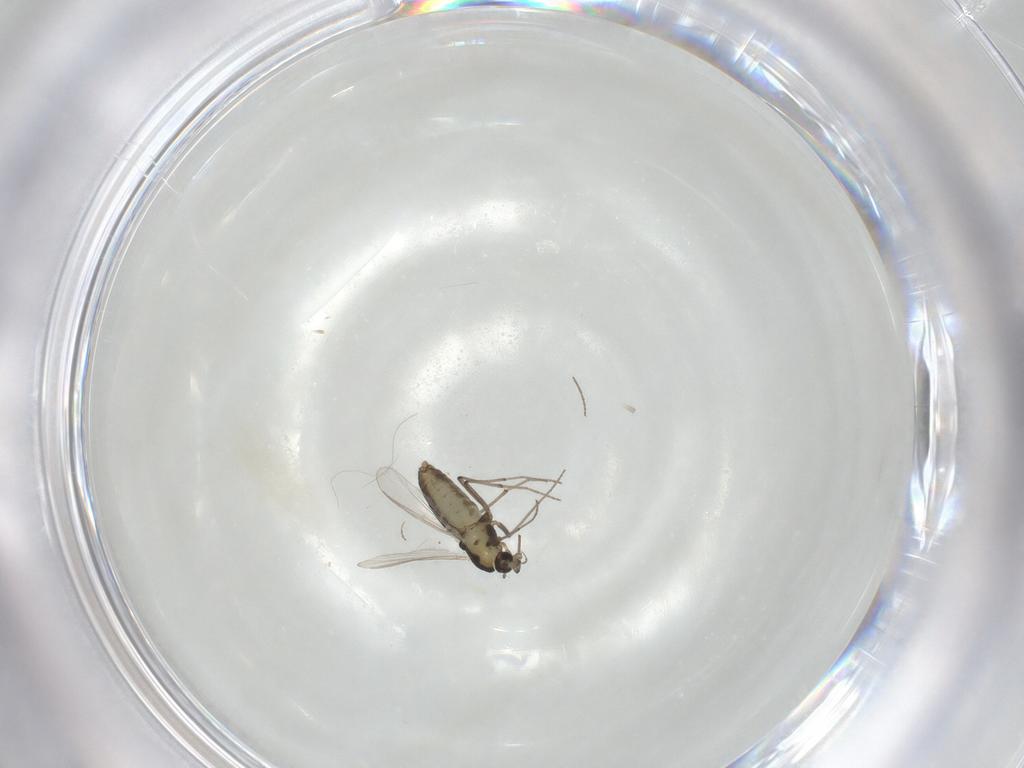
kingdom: Animalia
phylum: Arthropoda
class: Insecta
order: Diptera
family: Chironomidae
